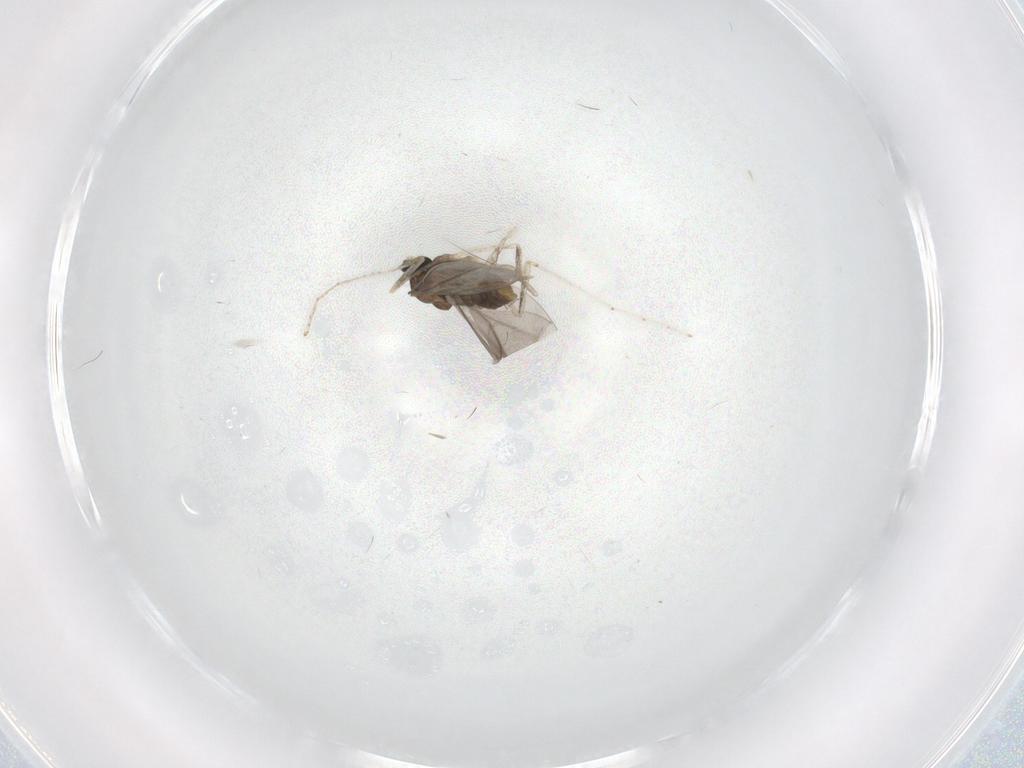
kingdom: Animalia
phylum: Arthropoda
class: Insecta
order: Diptera
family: Cecidomyiidae
